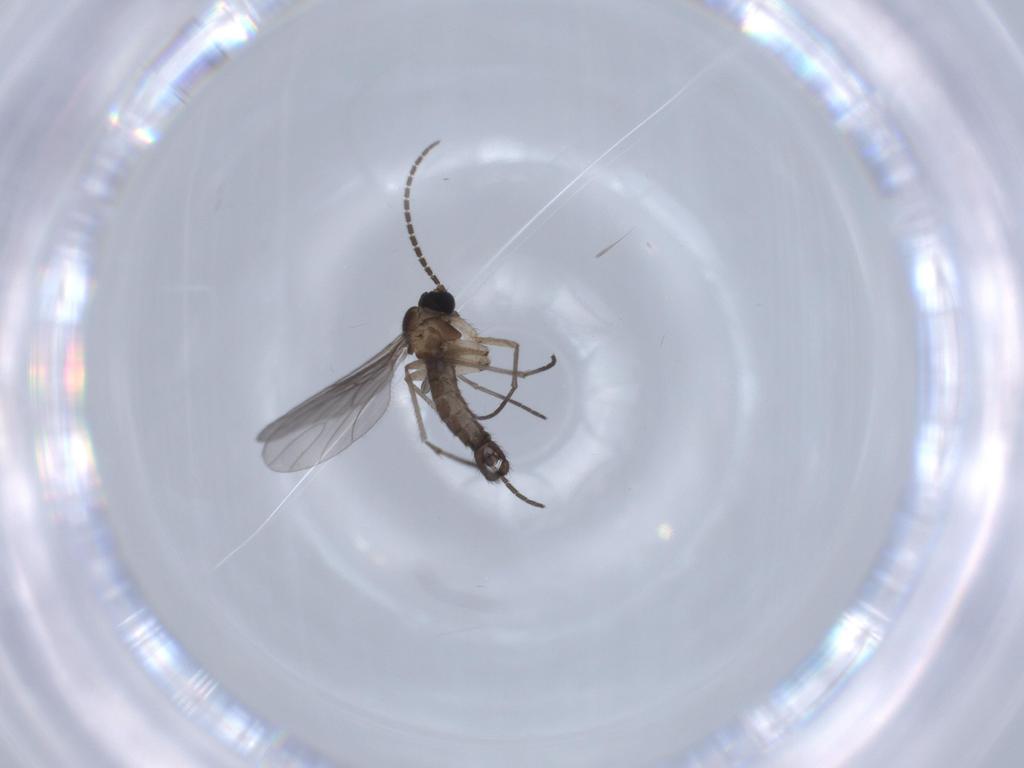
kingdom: Animalia
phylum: Arthropoda
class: Insecta
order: Diptera
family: Sciaridae
